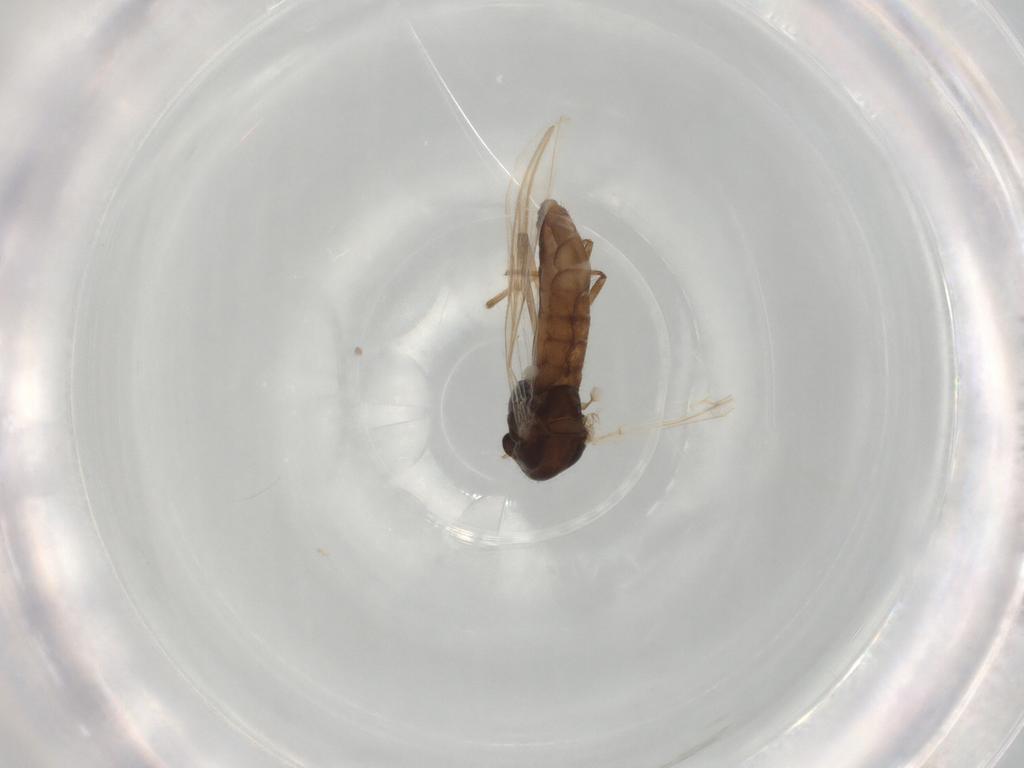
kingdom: Animalia
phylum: Arthropoda
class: Insecta
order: Diptera
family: Chironomidae
